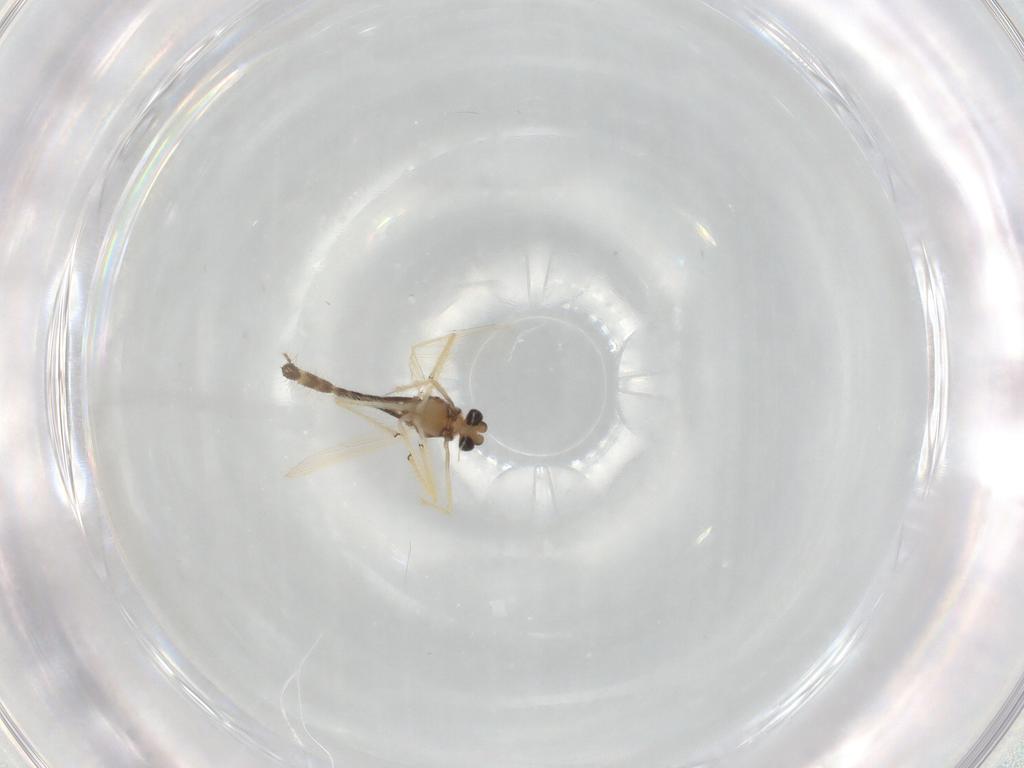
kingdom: Animalia
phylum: Arthropoda
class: Insecta
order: Diptera
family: Chironomidae
